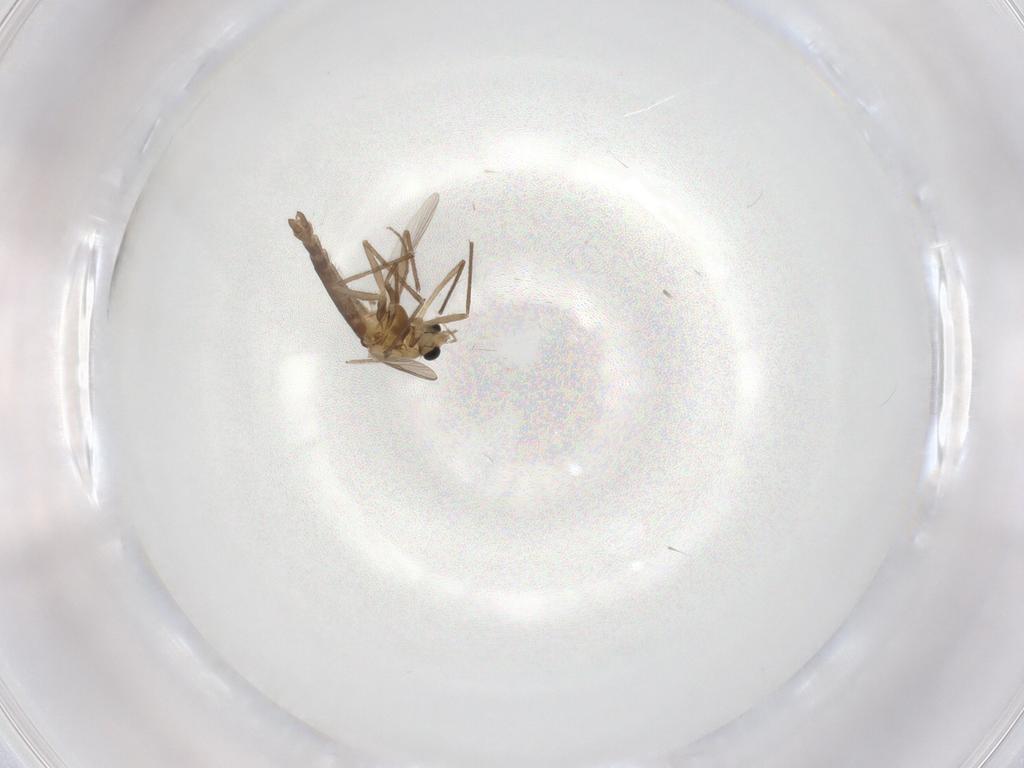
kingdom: Animalia
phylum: Arthropoda
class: Insecta
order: Diptera
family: Chironomidae
